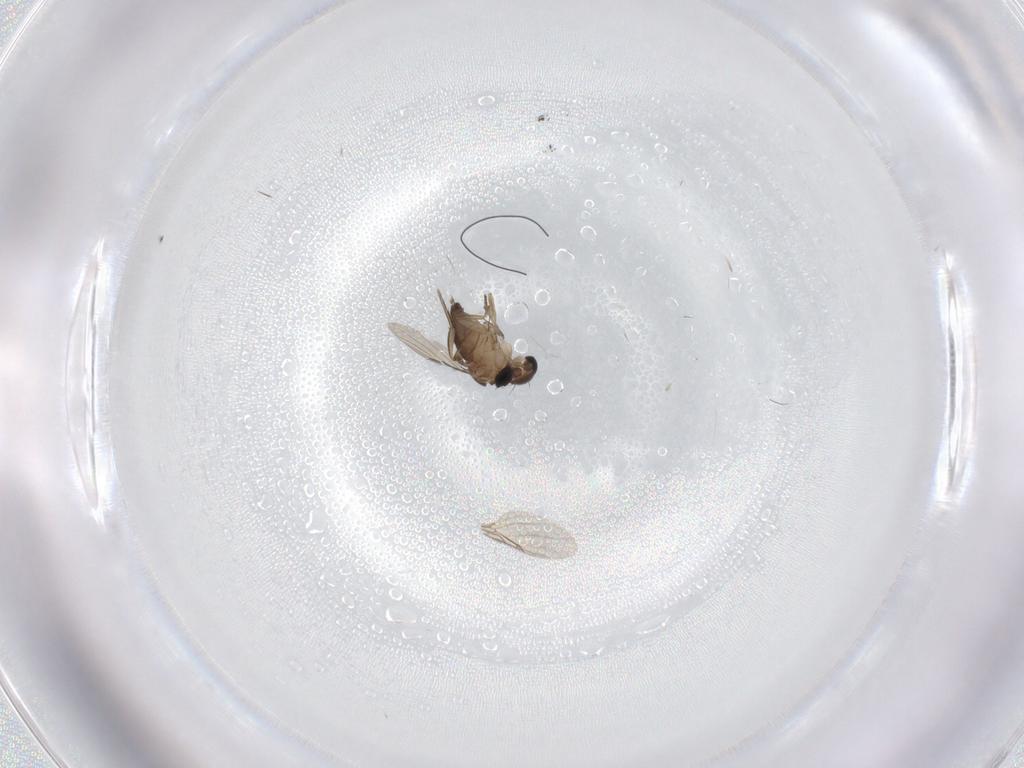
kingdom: Animalia
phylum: Arthropoda
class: Insecta
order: Diptera
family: Phoridae
